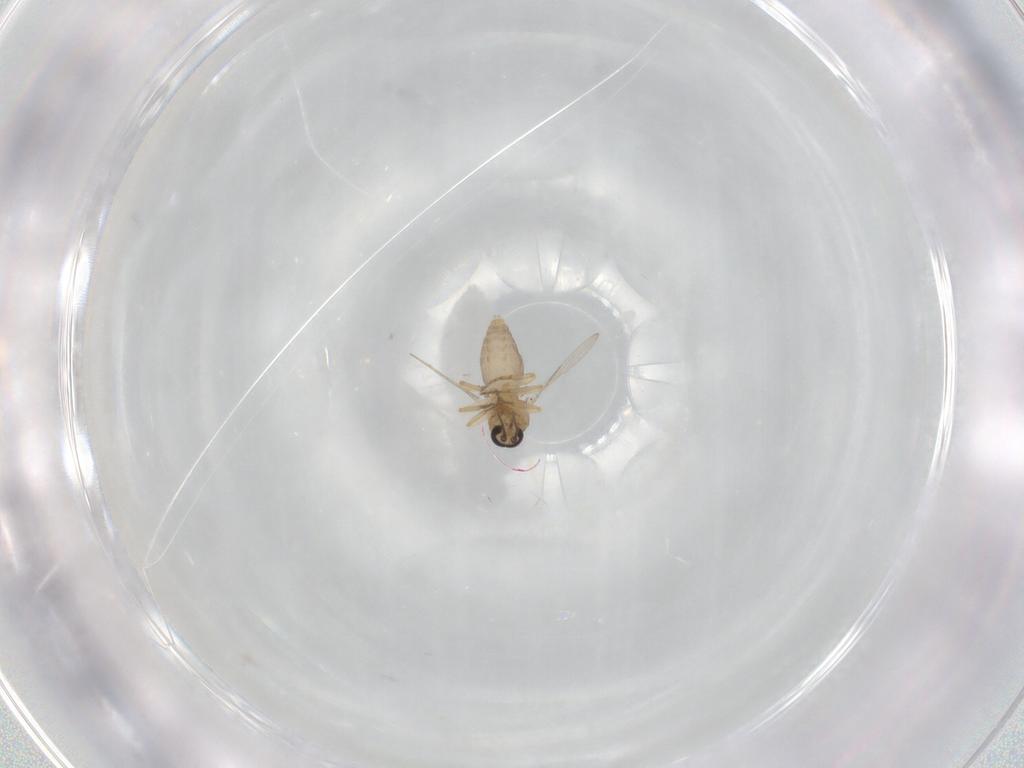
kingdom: Animalia
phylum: Arthropoda
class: Insecta
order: Diptera
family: Ceratopogonidae
